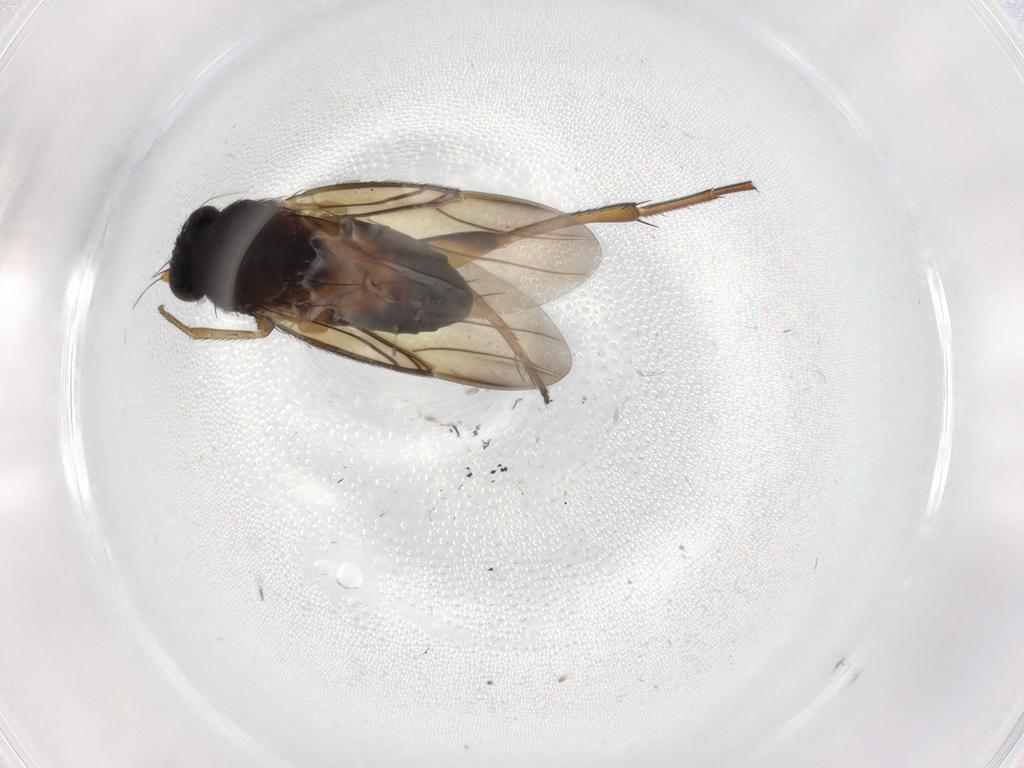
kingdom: Animalia
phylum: Arthropoda
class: Insecta
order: Diptera
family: Phoridae
